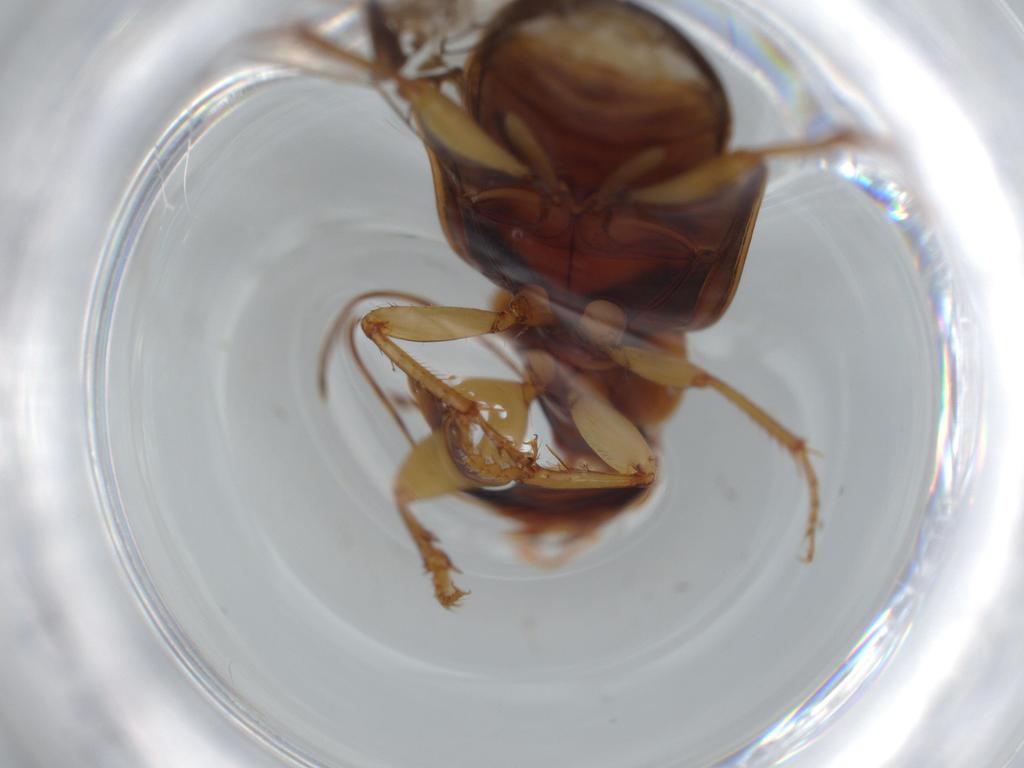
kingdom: Animalia
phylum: Arthropoda
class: Insecta
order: Coleoptera
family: Carabidae
